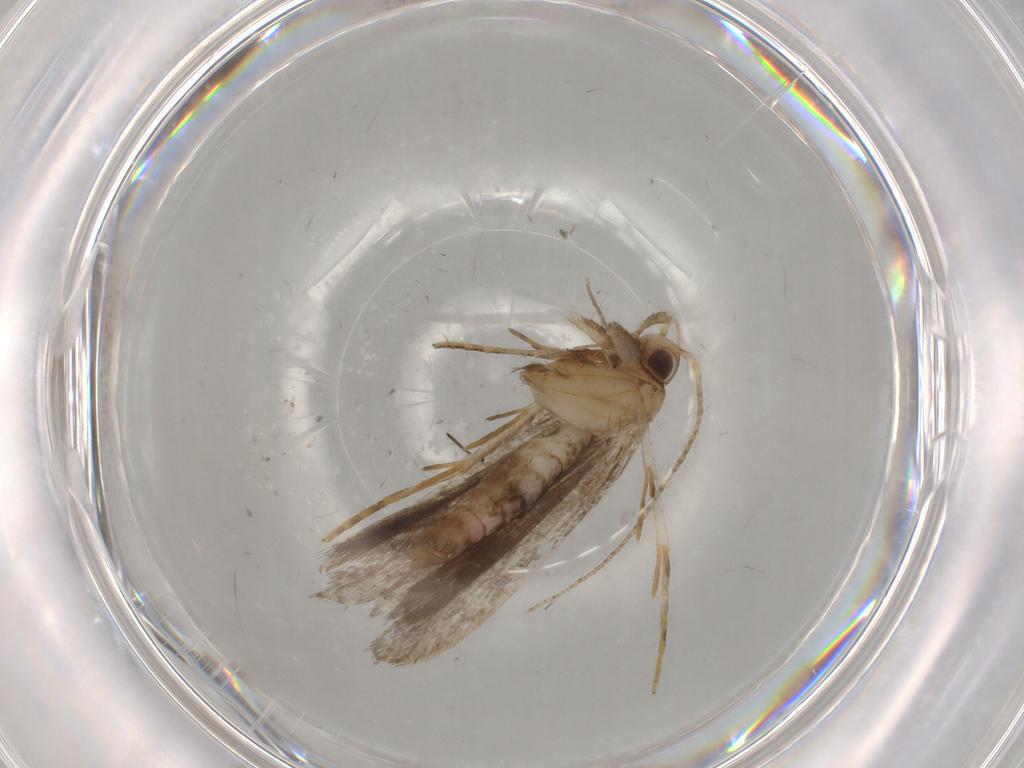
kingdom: Animalia
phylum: Arthropoda
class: Insecta
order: Lepidoptera
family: Gelechiidae
